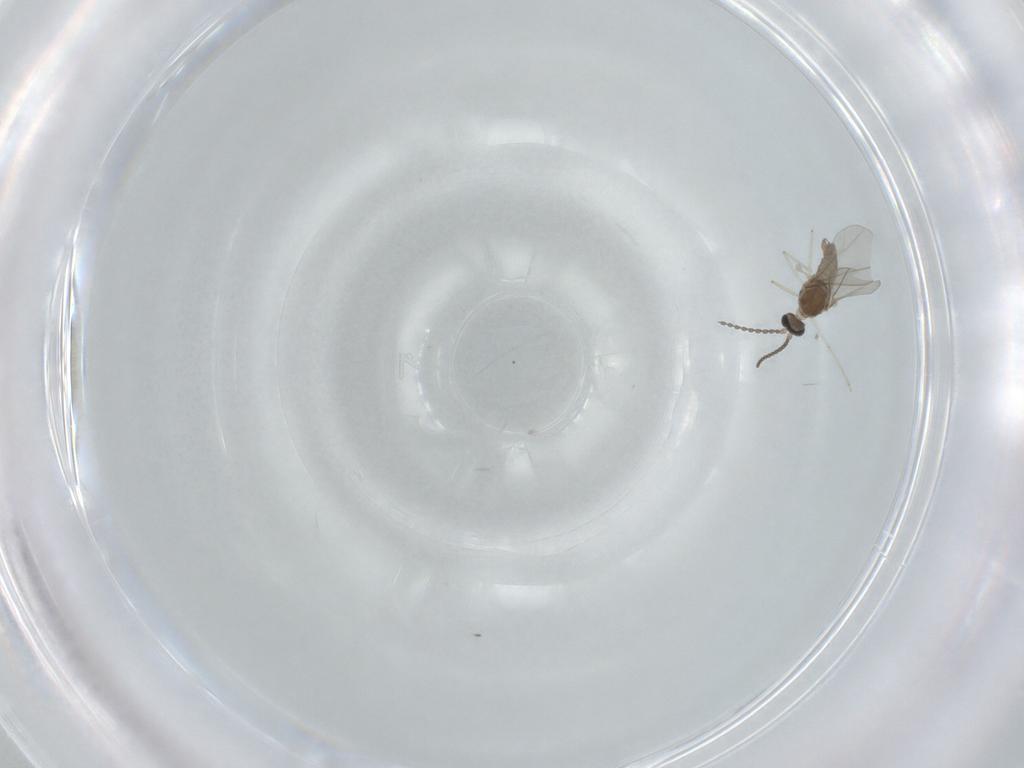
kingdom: Animalia
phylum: Arthropoda
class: Insecta
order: Diptera
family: Cecidomyiidae
